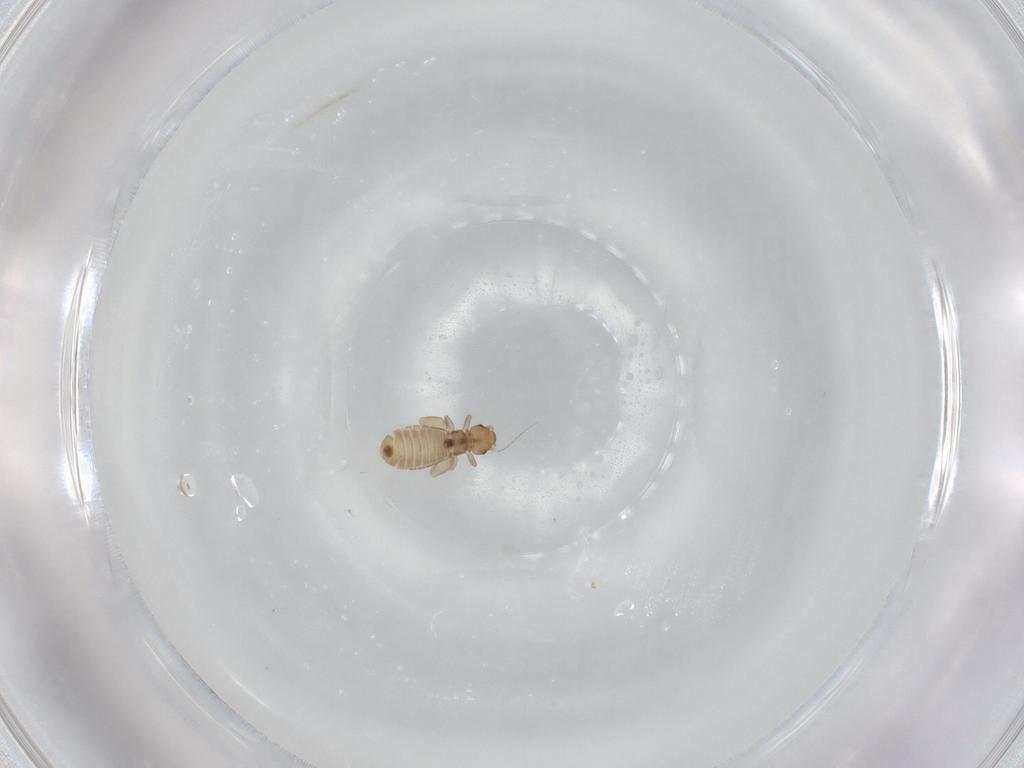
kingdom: Animalia
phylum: Arthropoda
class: Insecta
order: Psocodea
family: Liposcelididae
